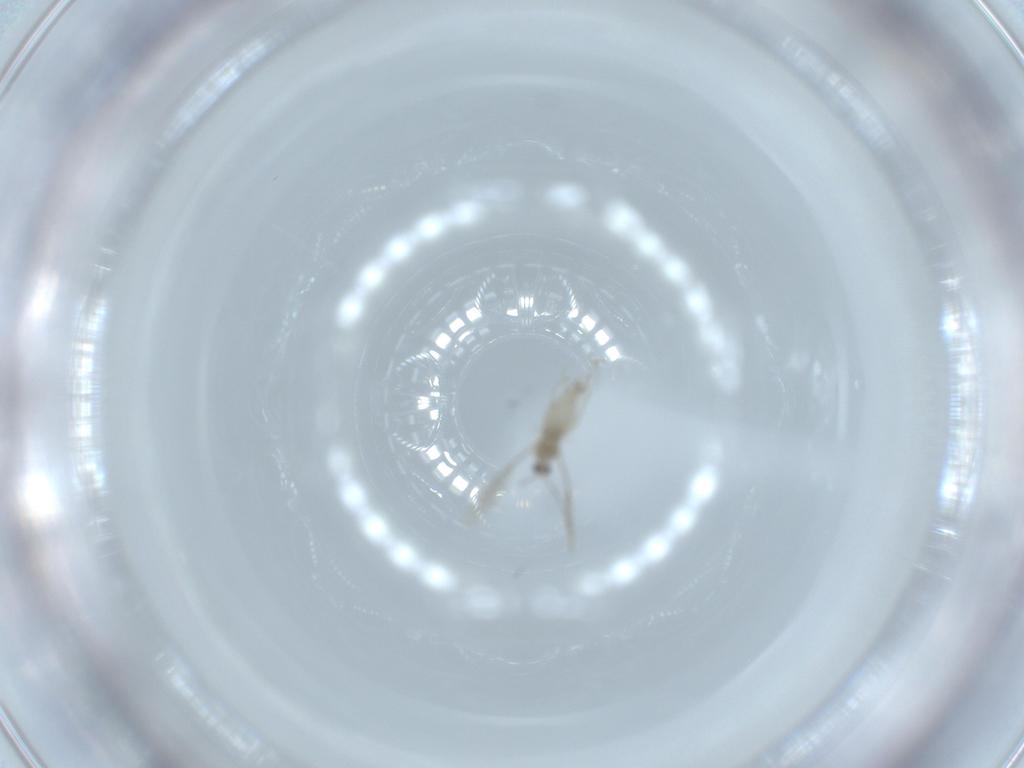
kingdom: Animalia
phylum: Arthropoda
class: Insecta
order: Diptera
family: Cecidomyiidae
